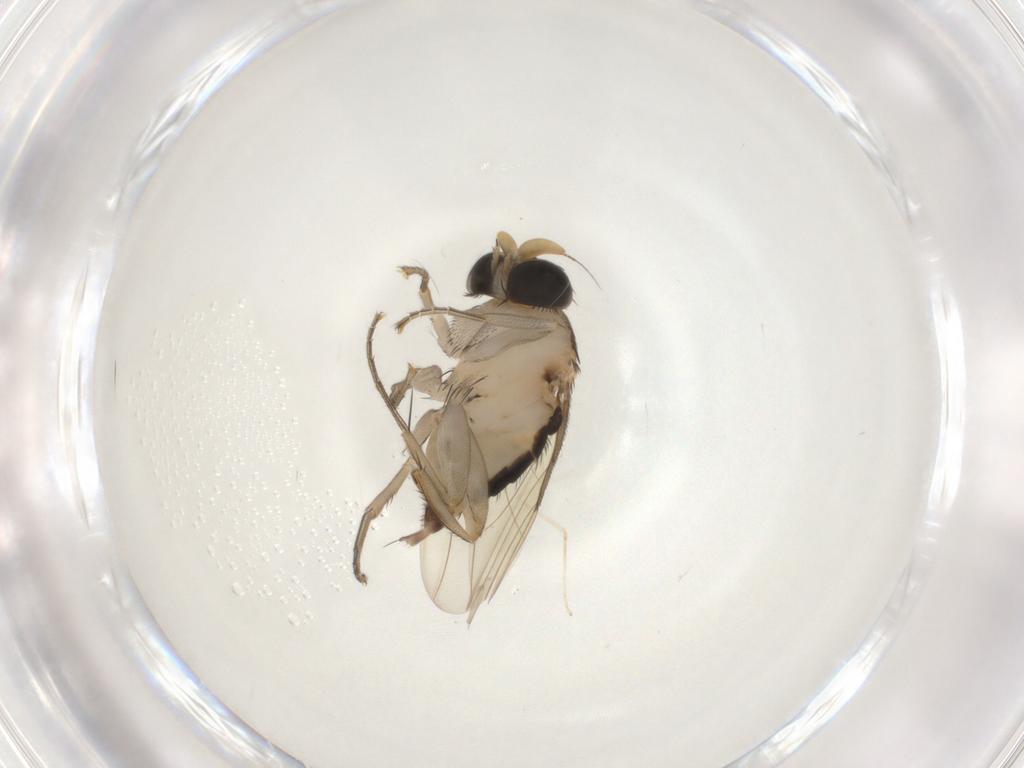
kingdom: Animalia
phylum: Arthropoda
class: Insecta
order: Diptera
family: Phoridae
